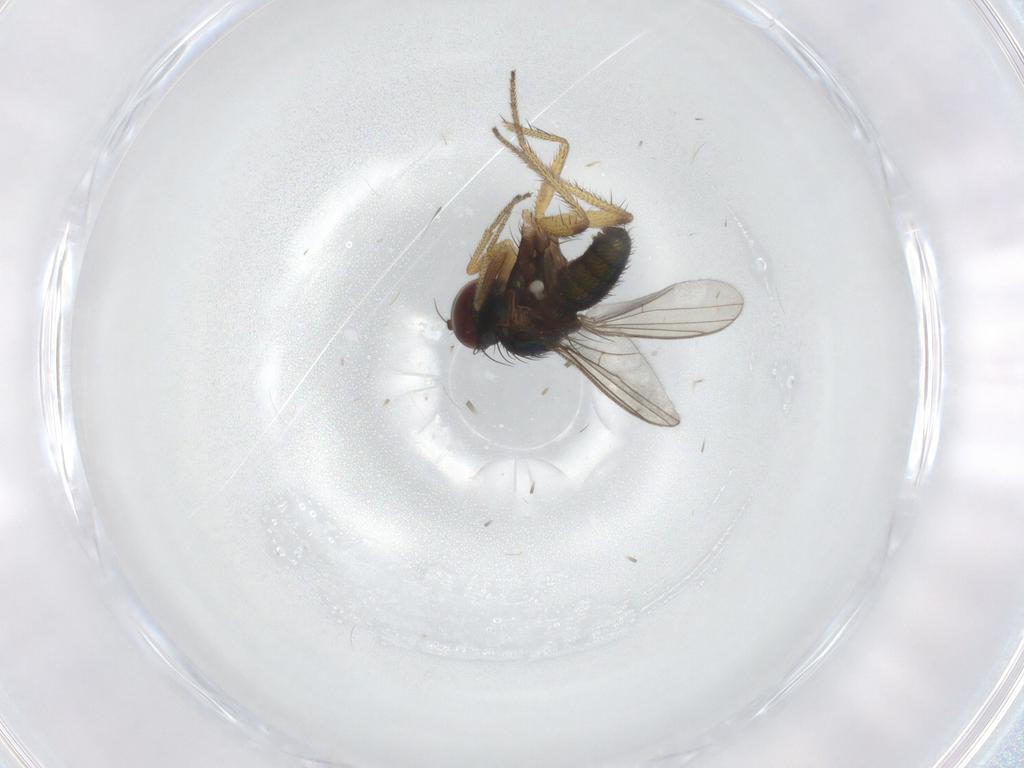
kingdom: Animalia
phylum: Arthropoda
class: Insecta
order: Diptera
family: Dolichopodidae
